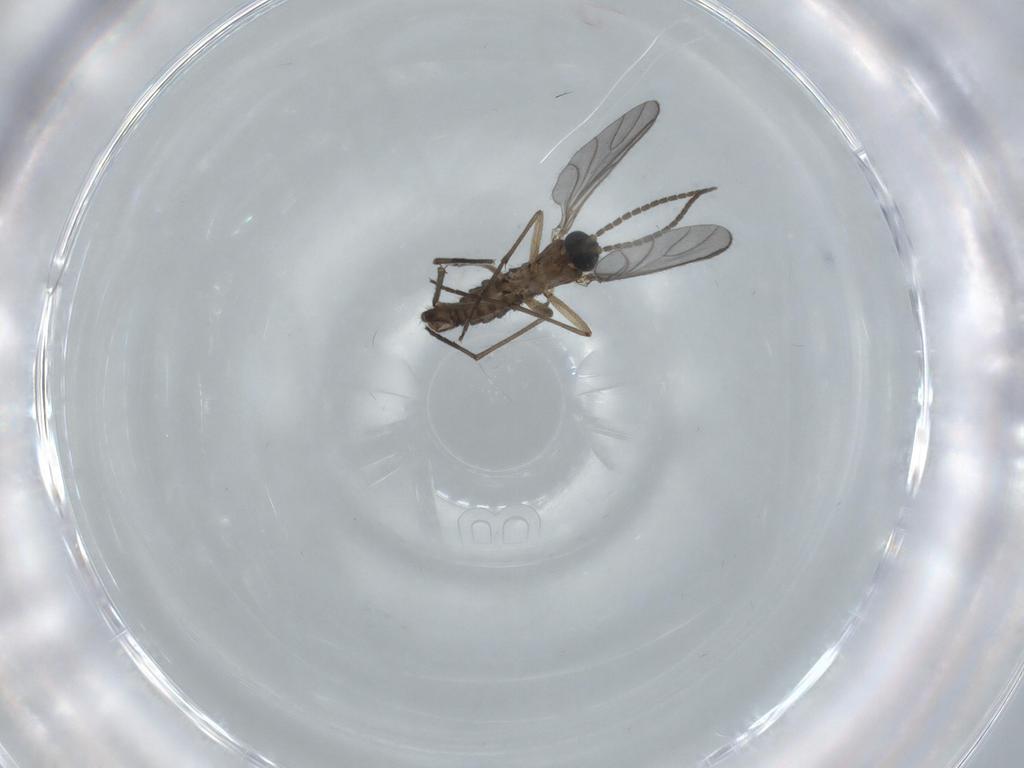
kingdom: Animalia
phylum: Arthropoda
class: Insecta
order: Diptera
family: Sciaridae
